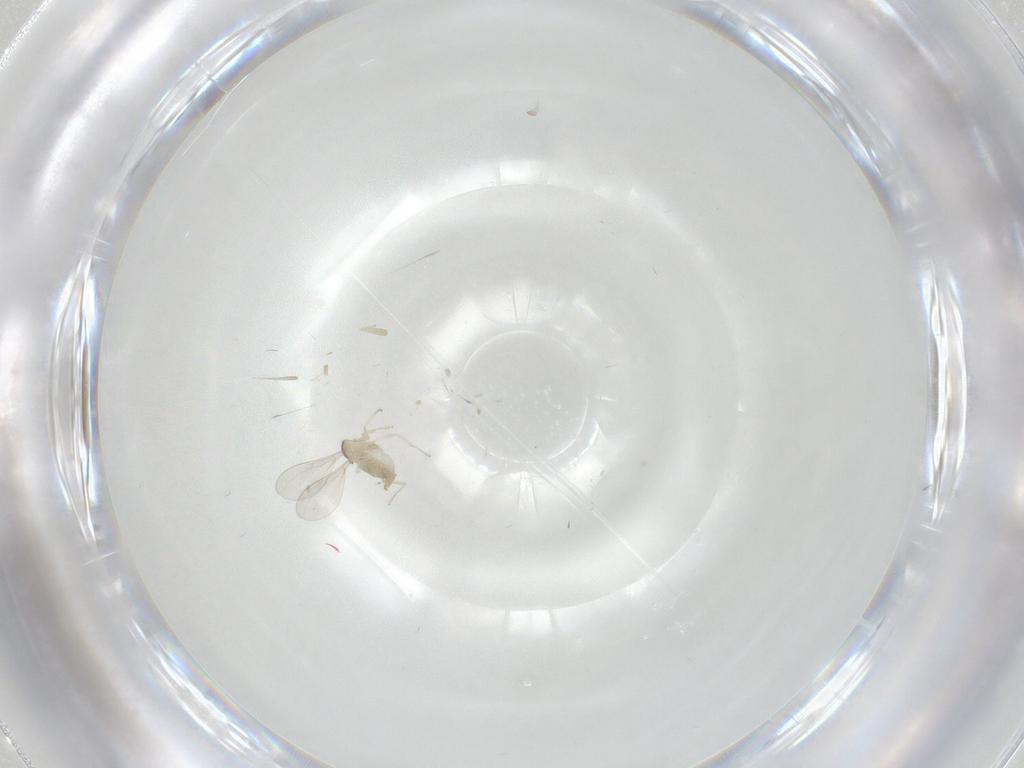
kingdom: Animalia
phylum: Arthropoda
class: Insecta
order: Diptera
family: Cecidomyiidae
